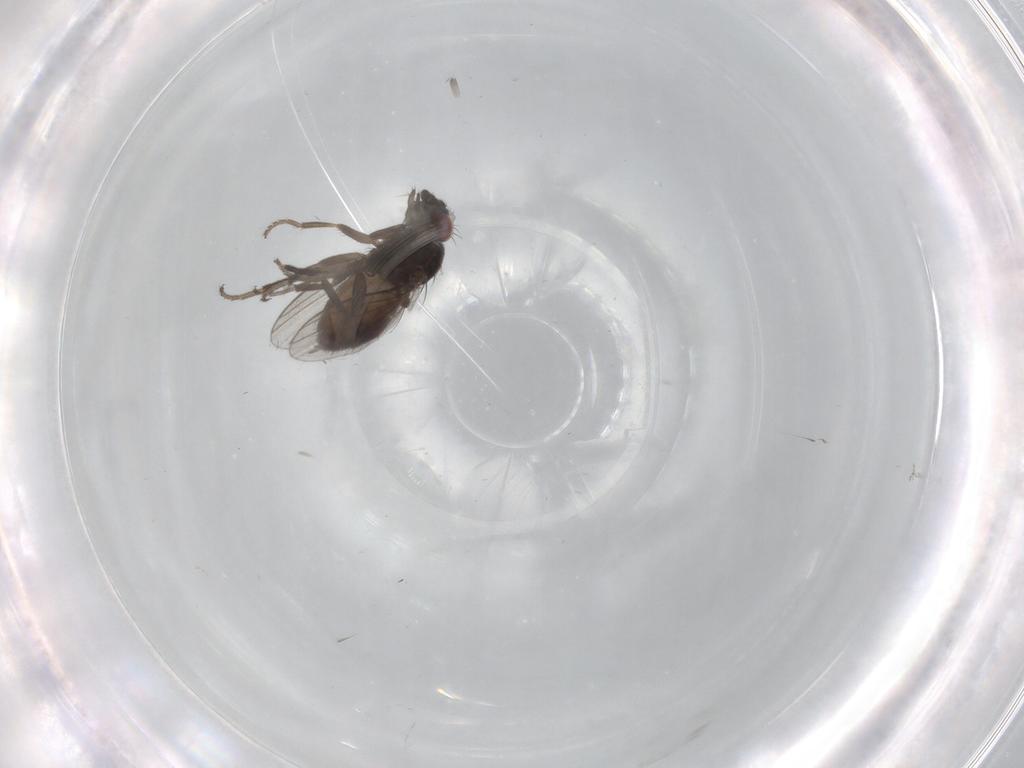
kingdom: Animalia
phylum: Arthropoda
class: Insecta
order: Diptera
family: Milichiidae
